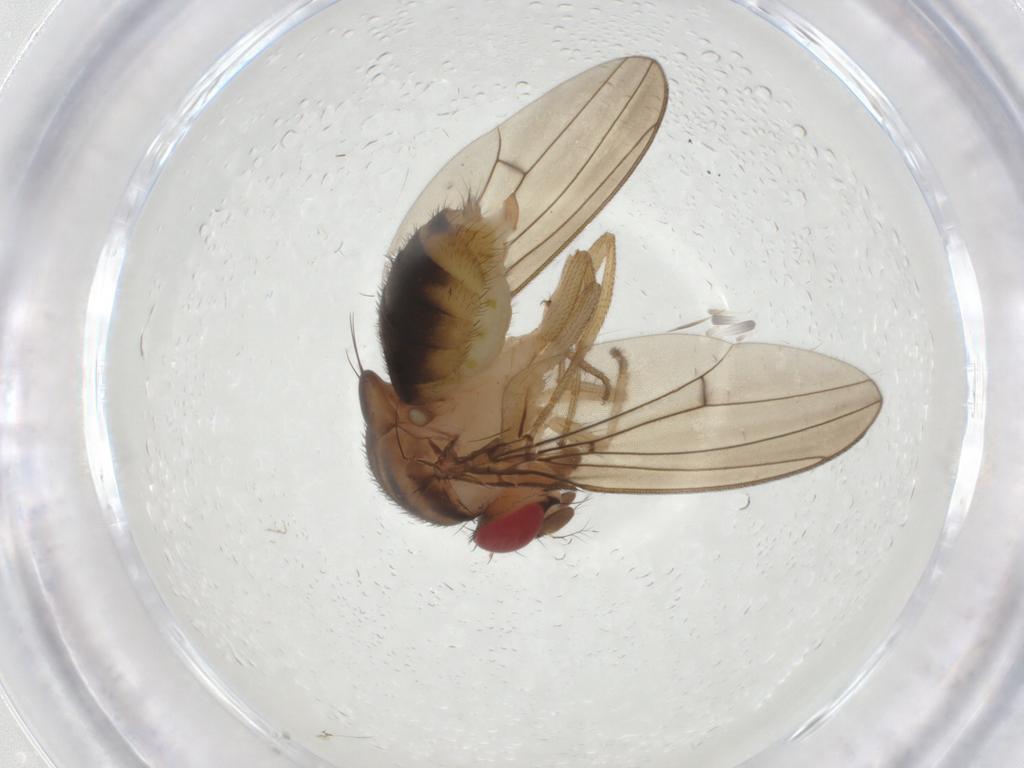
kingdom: Animalia
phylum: Arthropoda
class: Insecta
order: Diptera
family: Drosophilidae
